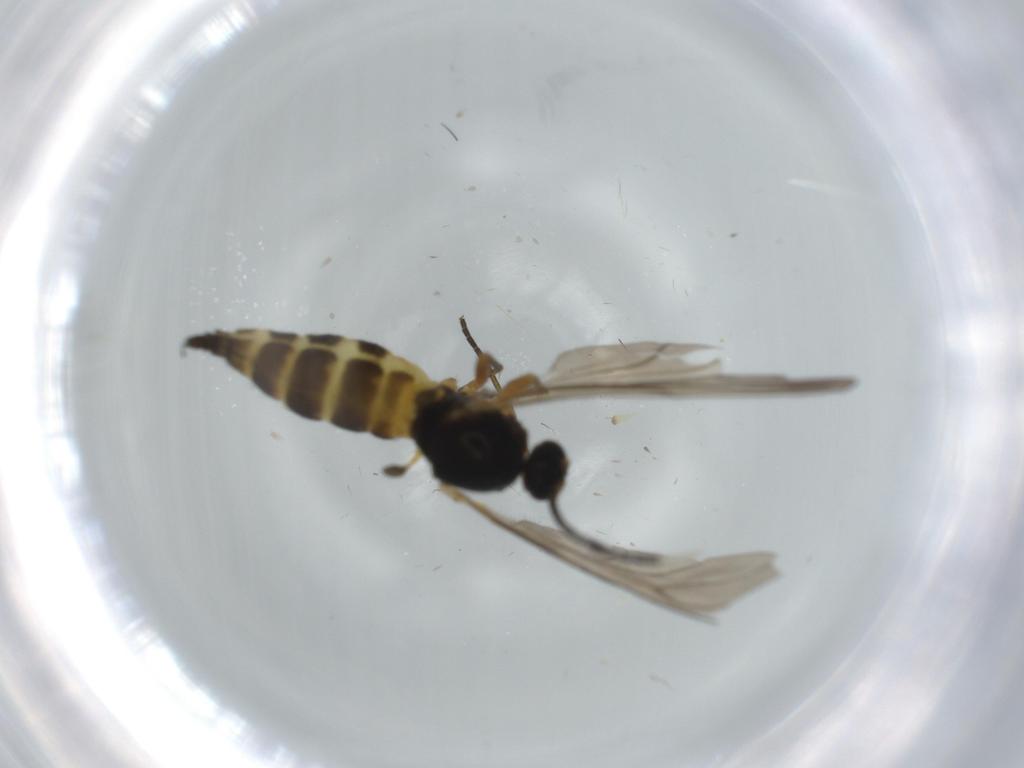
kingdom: Animalia
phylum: Arthropoda
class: Insecta
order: Diptera
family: Sciaridae
